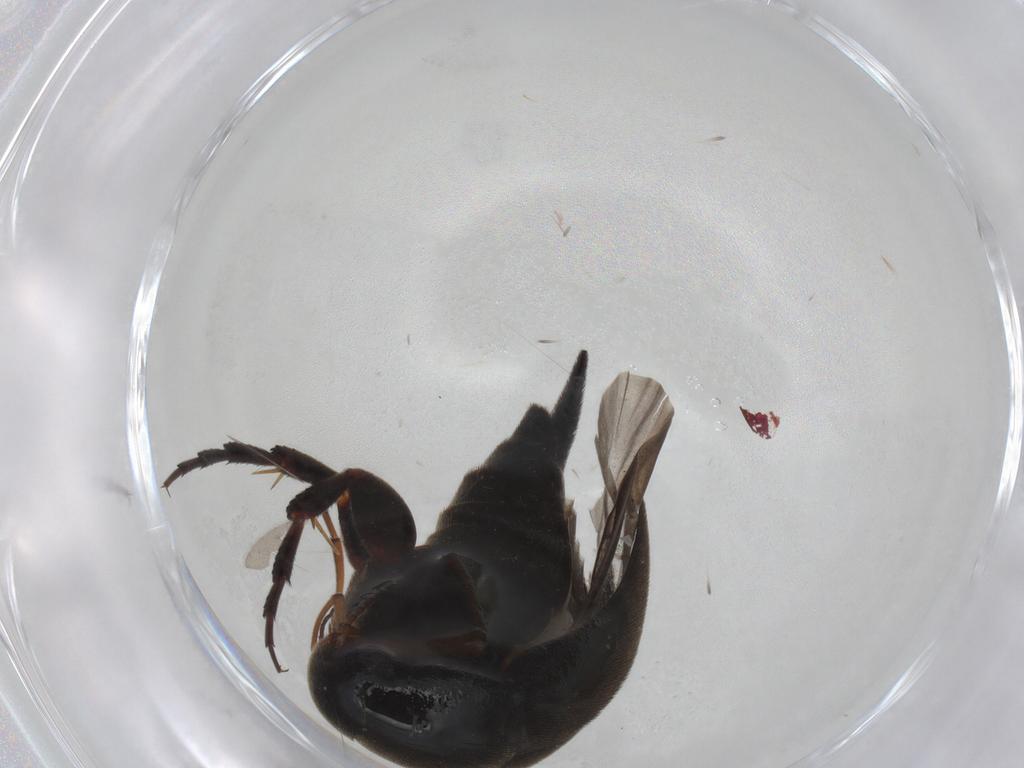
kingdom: Animalia
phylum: Arthropoda
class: Insecta
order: Coleoptera
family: Mordellidae
